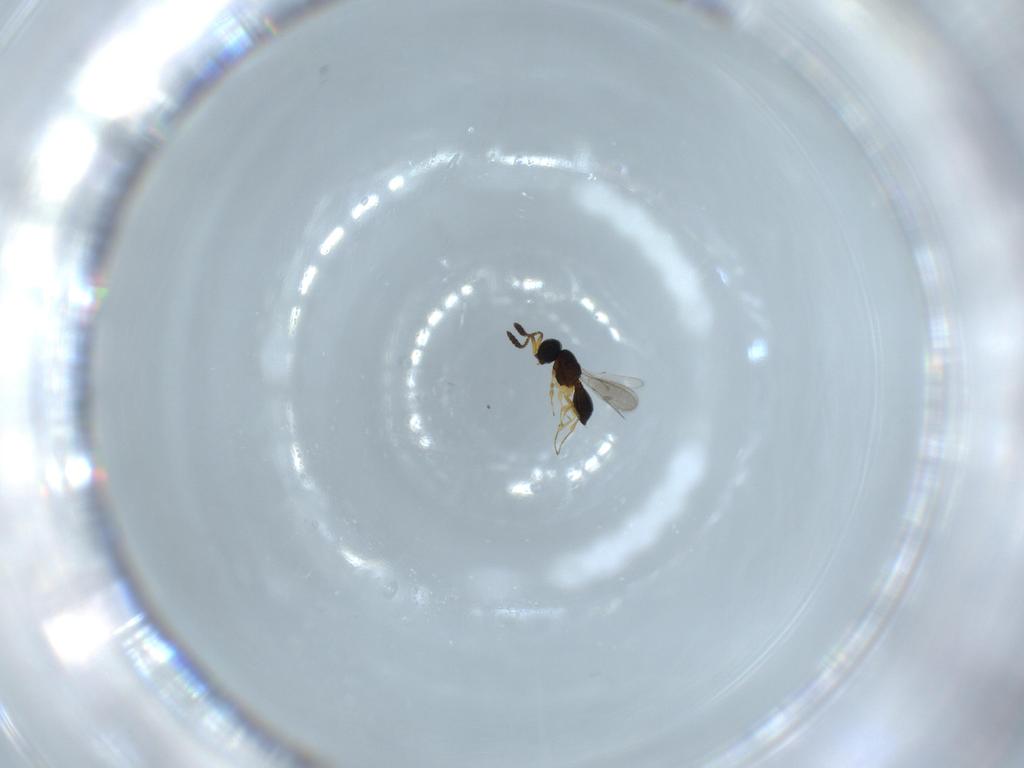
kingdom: Animalia
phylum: Arthropoda
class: Insecta
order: Hymenoptera
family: Scelionidae
